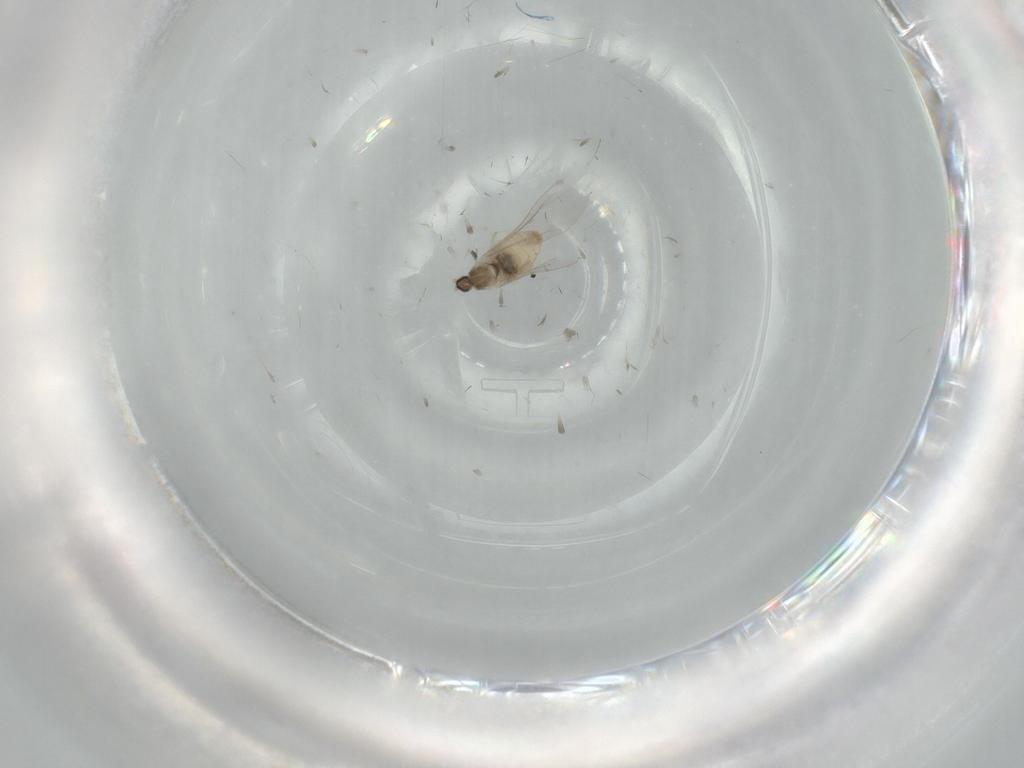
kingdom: Animalia
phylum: Arthropoda
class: Insecta
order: Diptera
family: Cecidomyiidae
